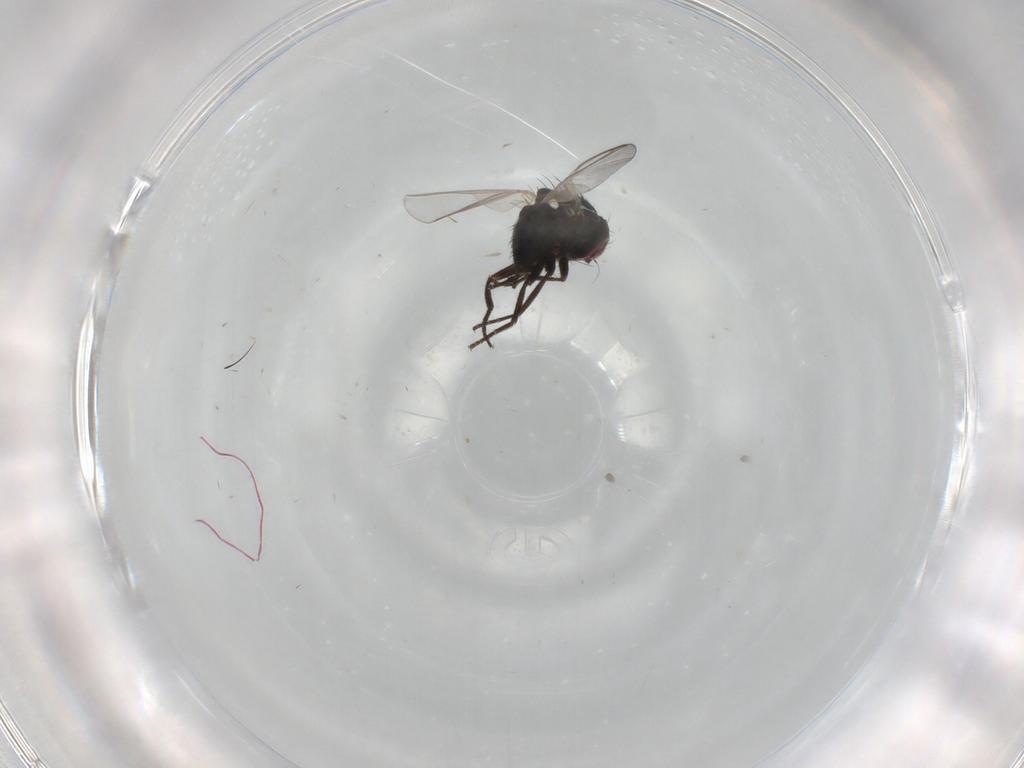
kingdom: Animalia
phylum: Arthropoda
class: Insecta
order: Diptera
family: Agromyzidae
